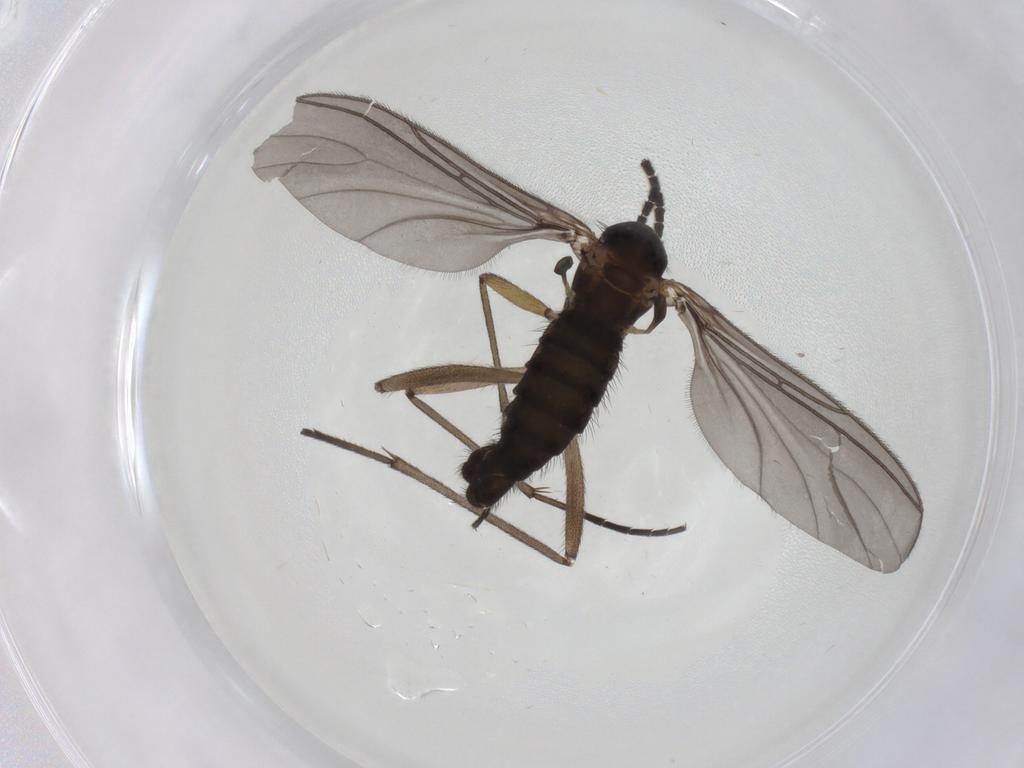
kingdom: Animalia
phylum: Arthropoda
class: Insecta
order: Diptera
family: Sciaridae
